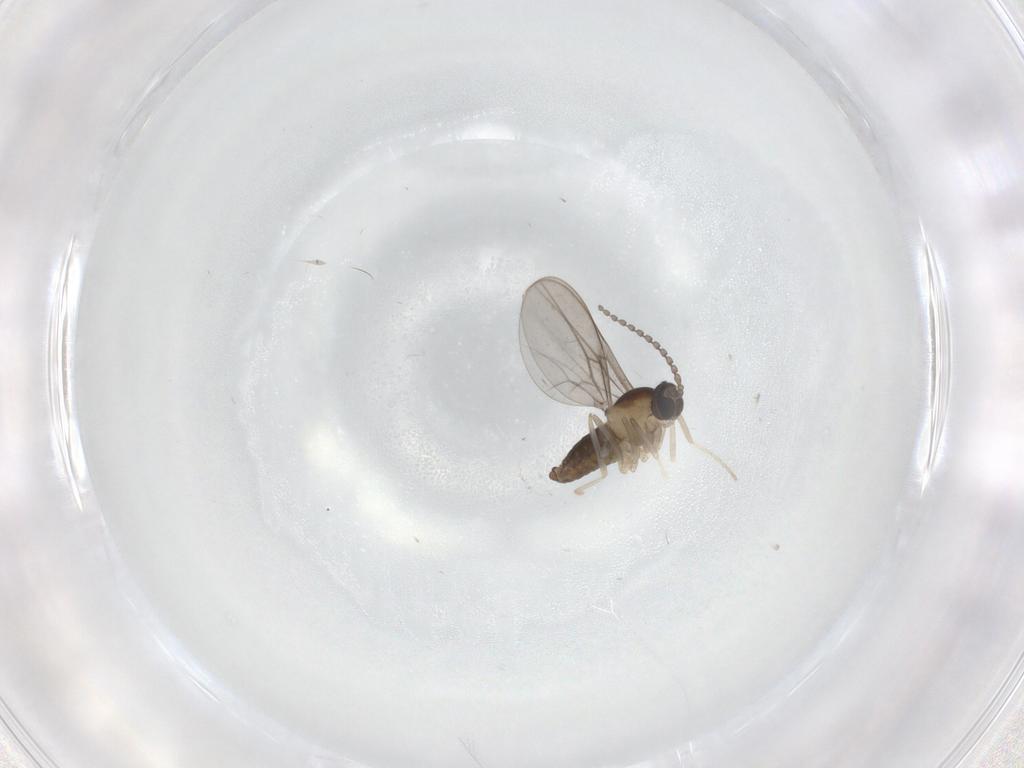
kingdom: Animalia
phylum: Arthropoda
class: Insecta
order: Diptera
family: Cecidomyiidae
